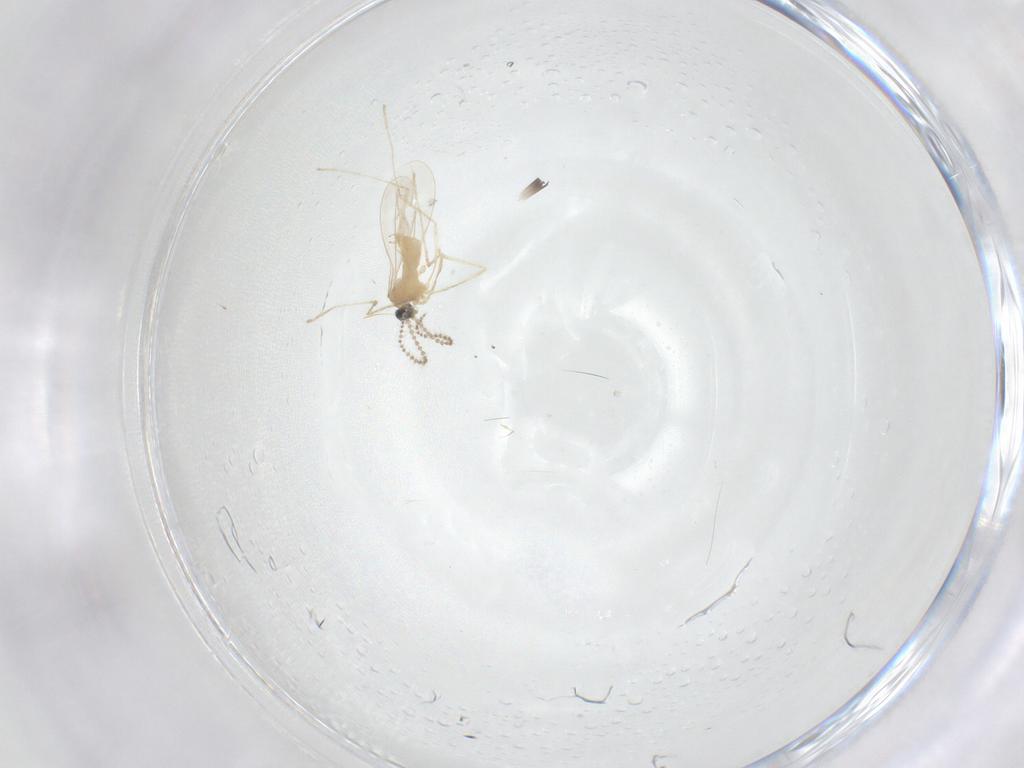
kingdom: Animalia
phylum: Arthropoda
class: Insecta
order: Diptera
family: Cecidomyiidae
